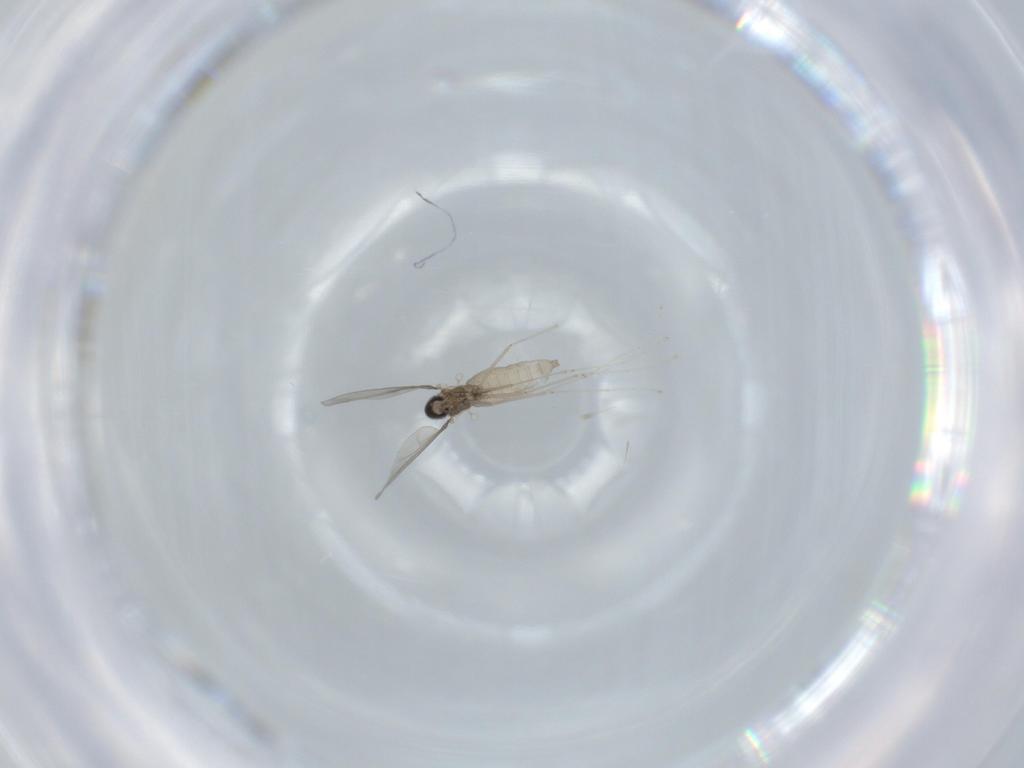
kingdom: Animalia
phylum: Arthropoda
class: Insecta
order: Diptera
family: Cecidomyiidae
